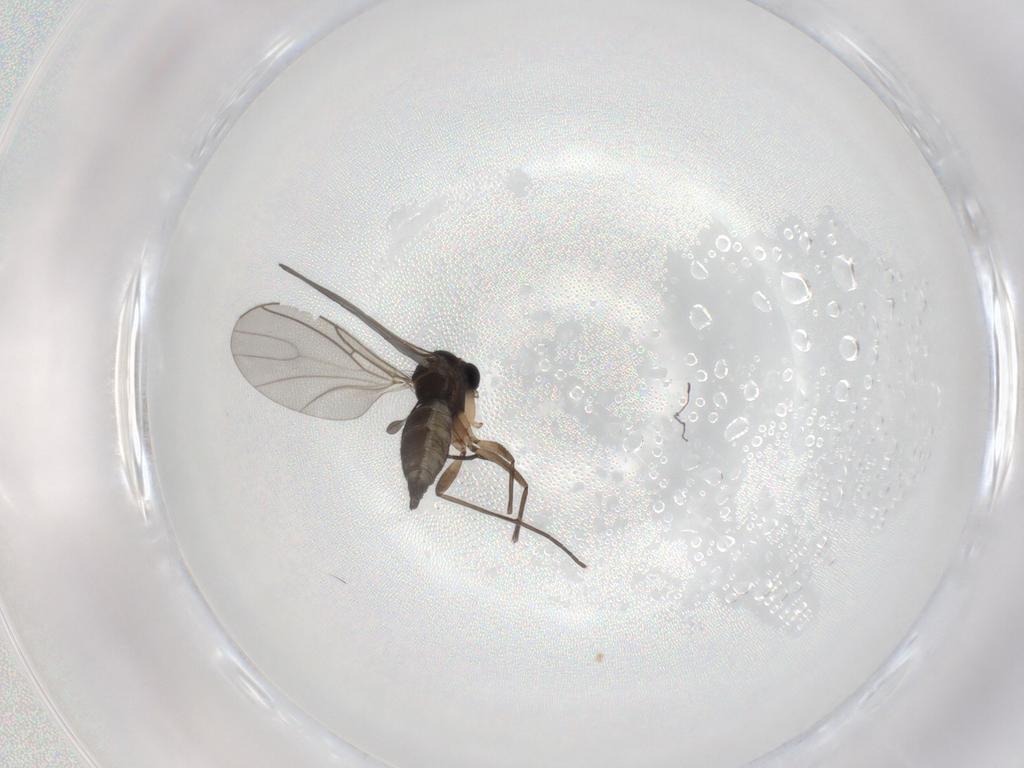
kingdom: Animalia
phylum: Arthropoda
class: Insecta
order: Diptera
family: Sciaridae
